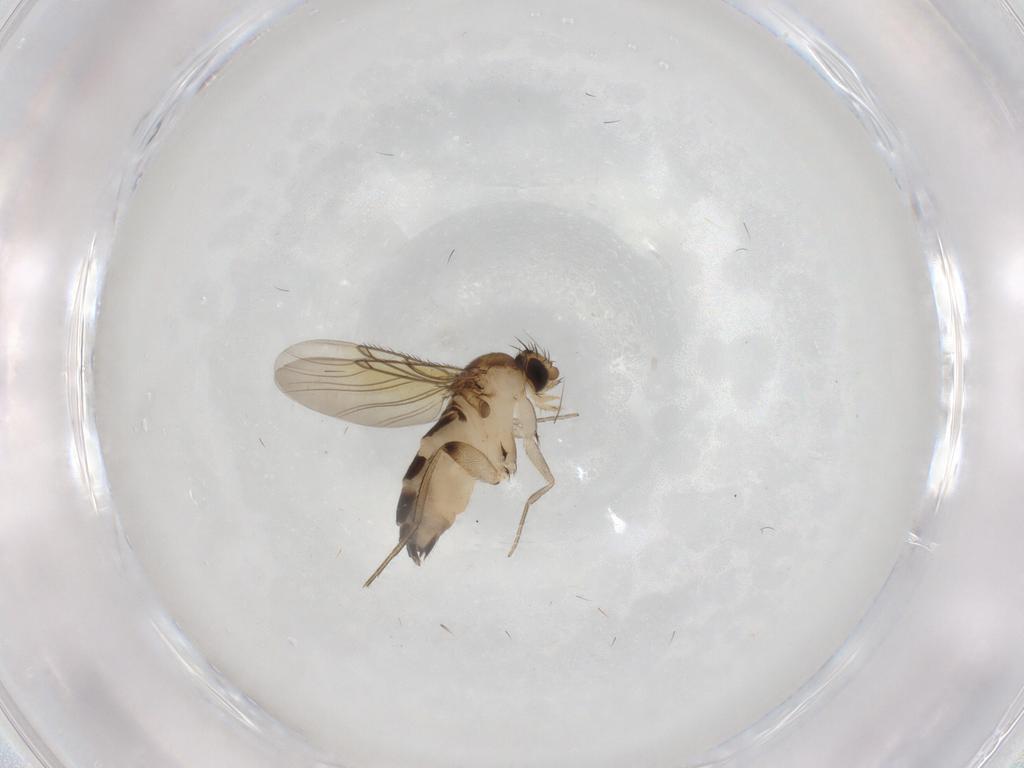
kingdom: Animalia
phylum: Arthropoda
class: Insecta
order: Diptera
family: Phoridae
